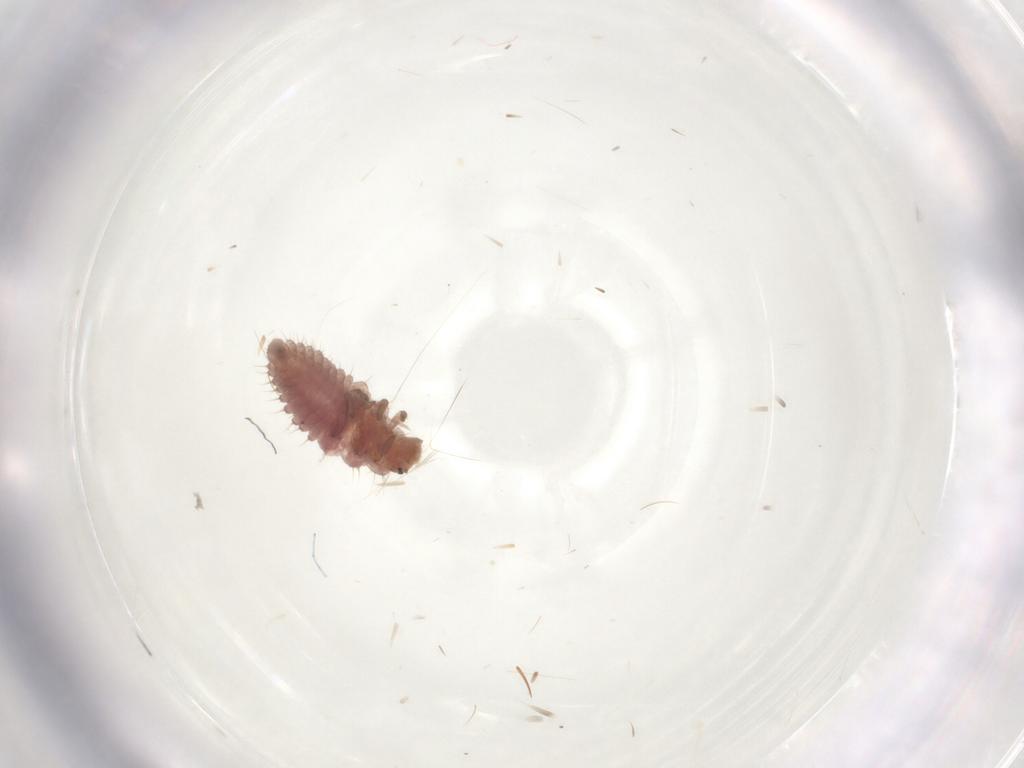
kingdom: Animalia
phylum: Arthropoda
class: Insecta
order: Coleoptera
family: Coccinellidae
